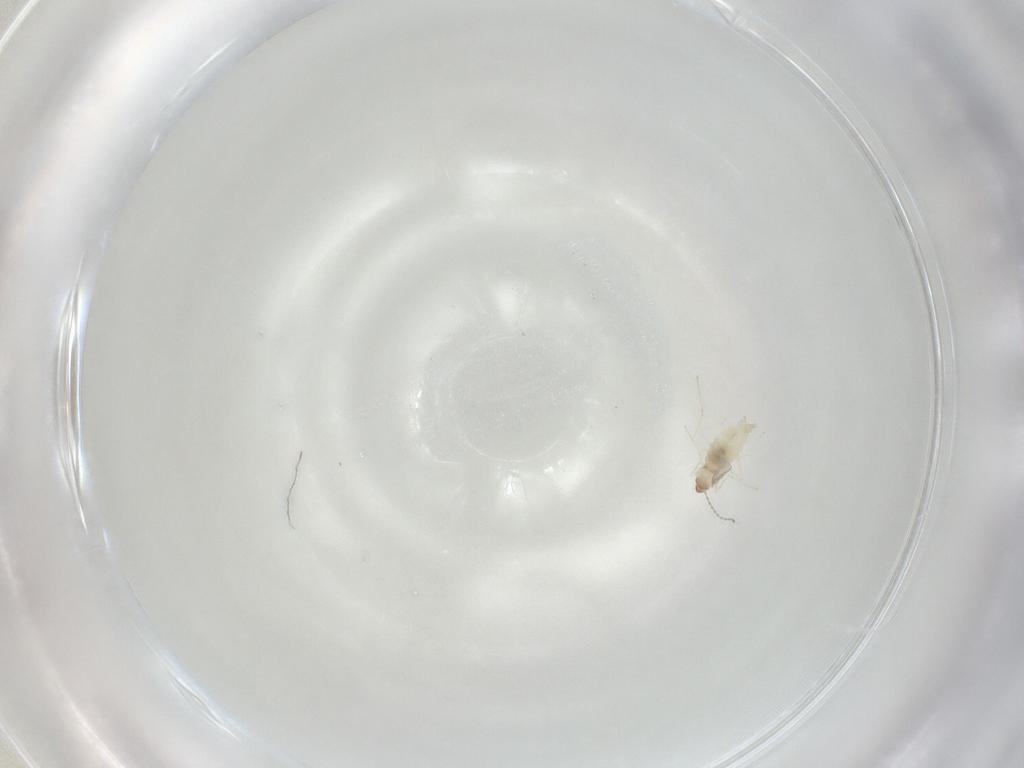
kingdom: Animalia
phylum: Arthropoda
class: Insecta
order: Diptera
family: Cecidomyiidae
